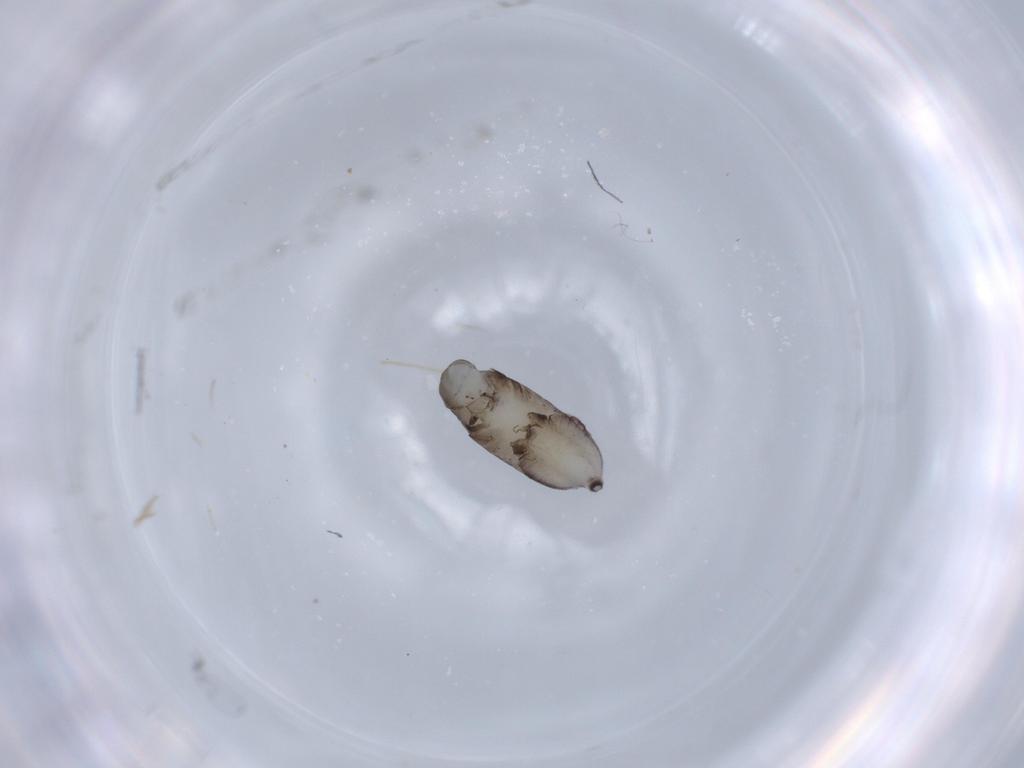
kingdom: Animalia
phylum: Arthropoda
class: Insecta
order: Hymenoptera
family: Rhopalosomatidae
